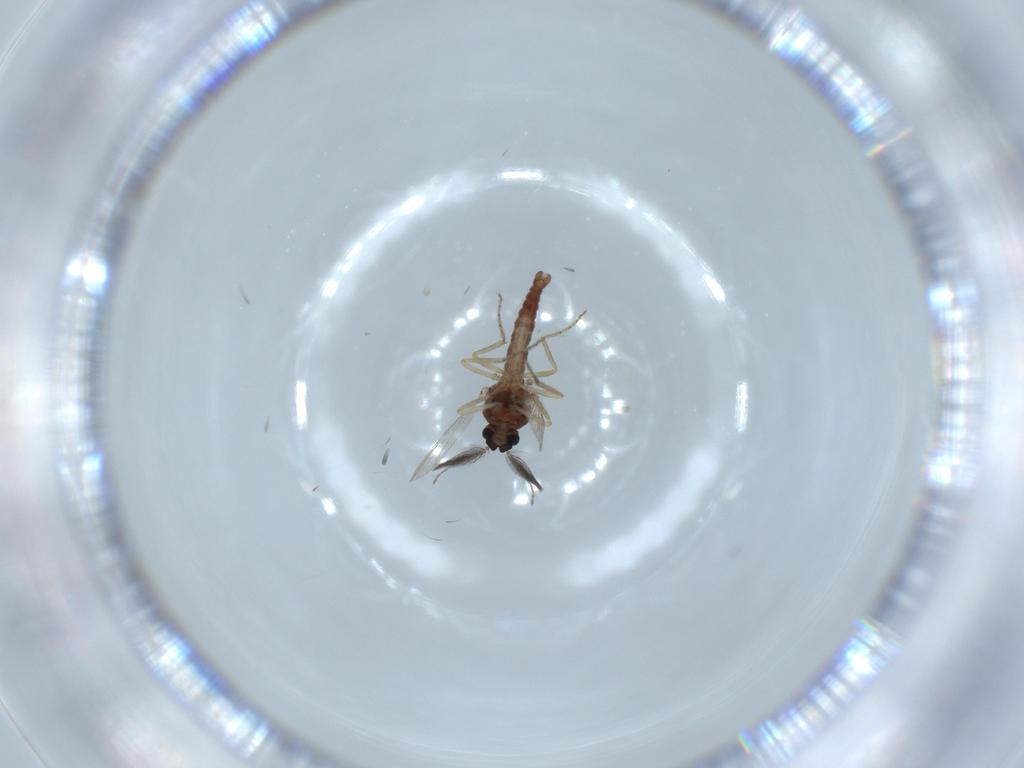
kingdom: Animalia
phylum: Arthropoda
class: Insecta
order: Diptera
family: Ceratopogonidae
